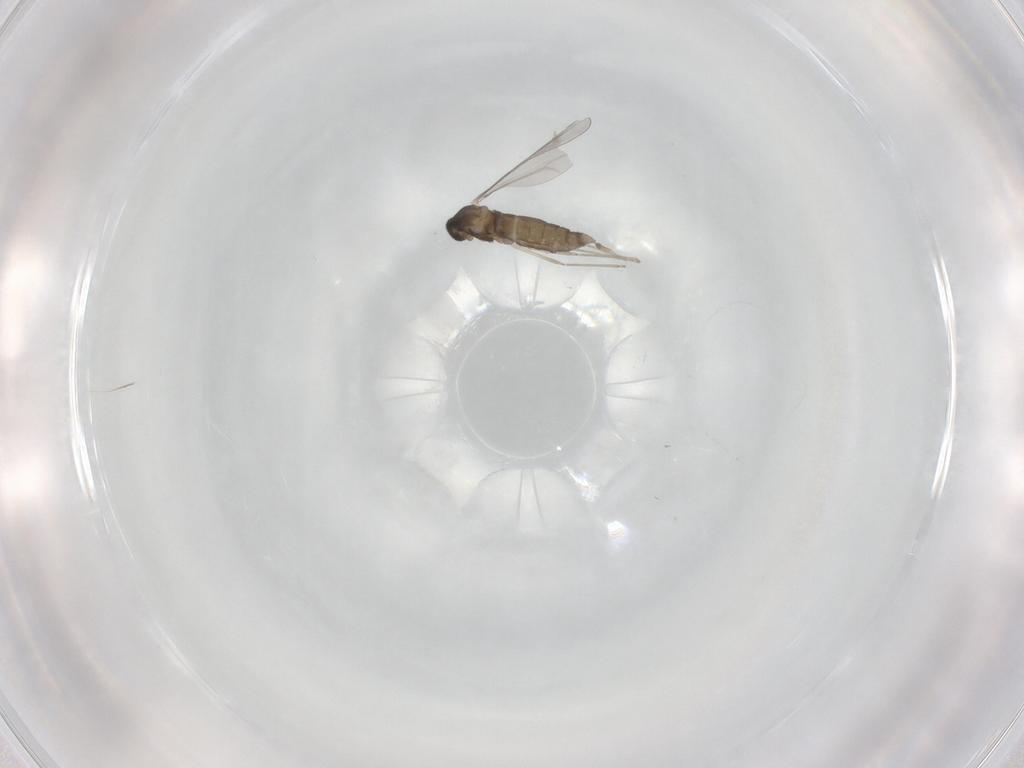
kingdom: Animalia
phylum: Arthropoda
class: Insecta
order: Diptera
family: Cecidomyiidae
